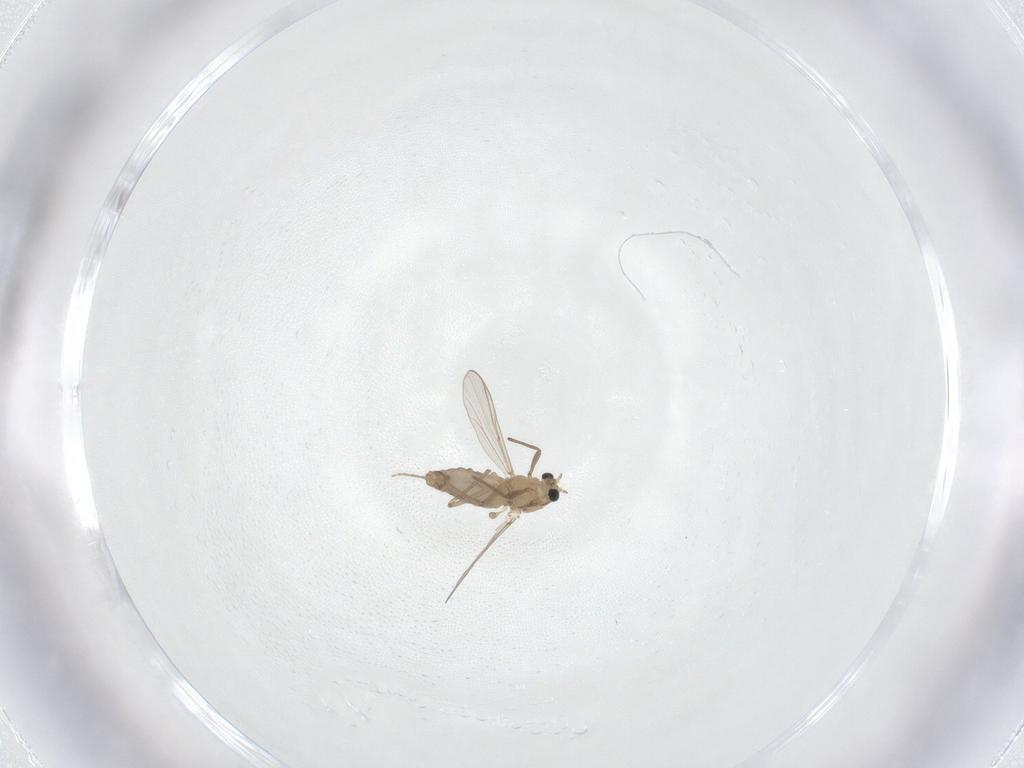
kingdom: Animalia
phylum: Arthropoda
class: Insecta
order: Diptera
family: Chironomidae
